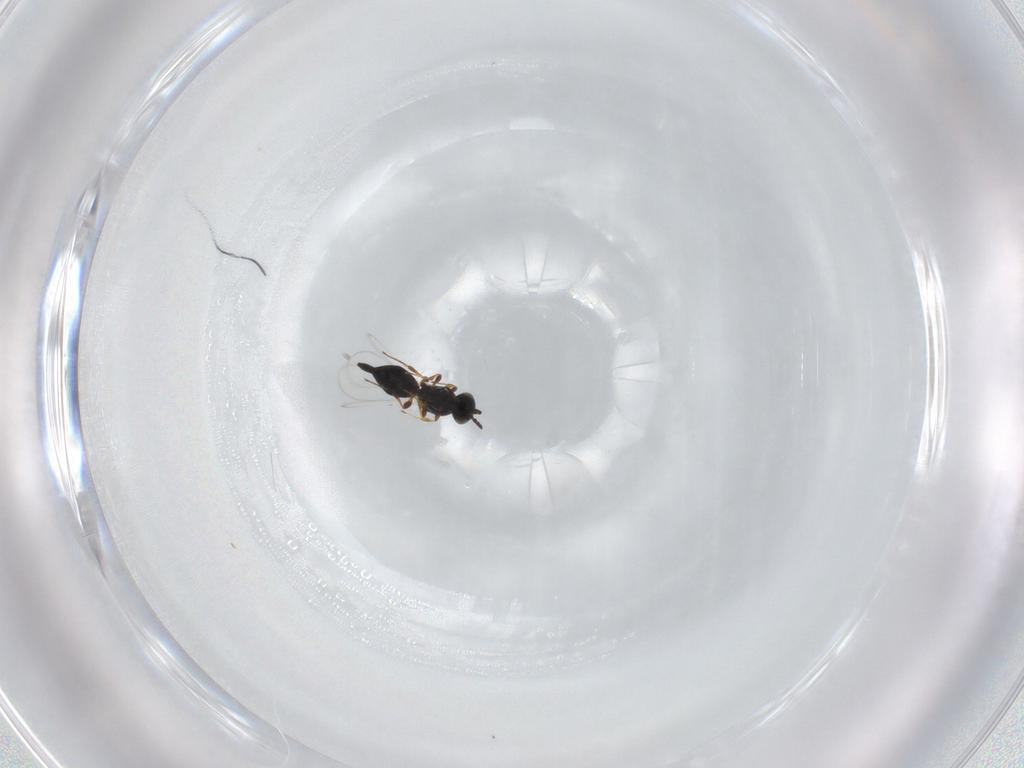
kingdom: Animalia
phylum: Arthropoda
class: Insecta
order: Hymenoptera
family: Platygastridae
